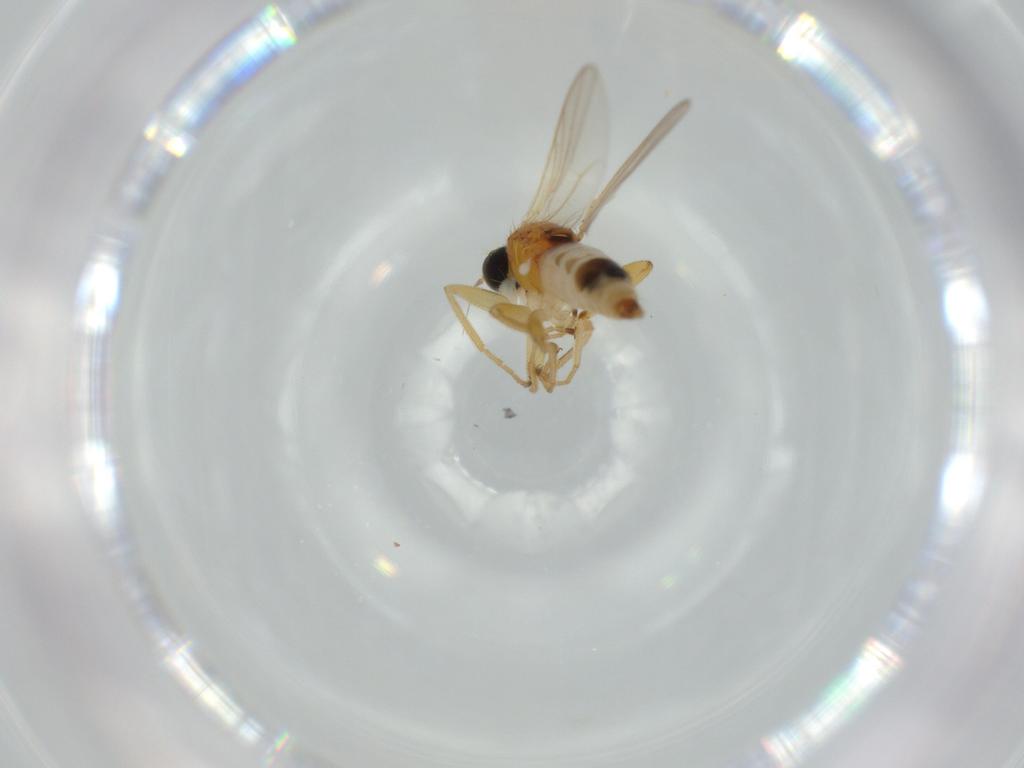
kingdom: Animalia
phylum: Arthropoda
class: Insecta
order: Diptera
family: Hybotidae
